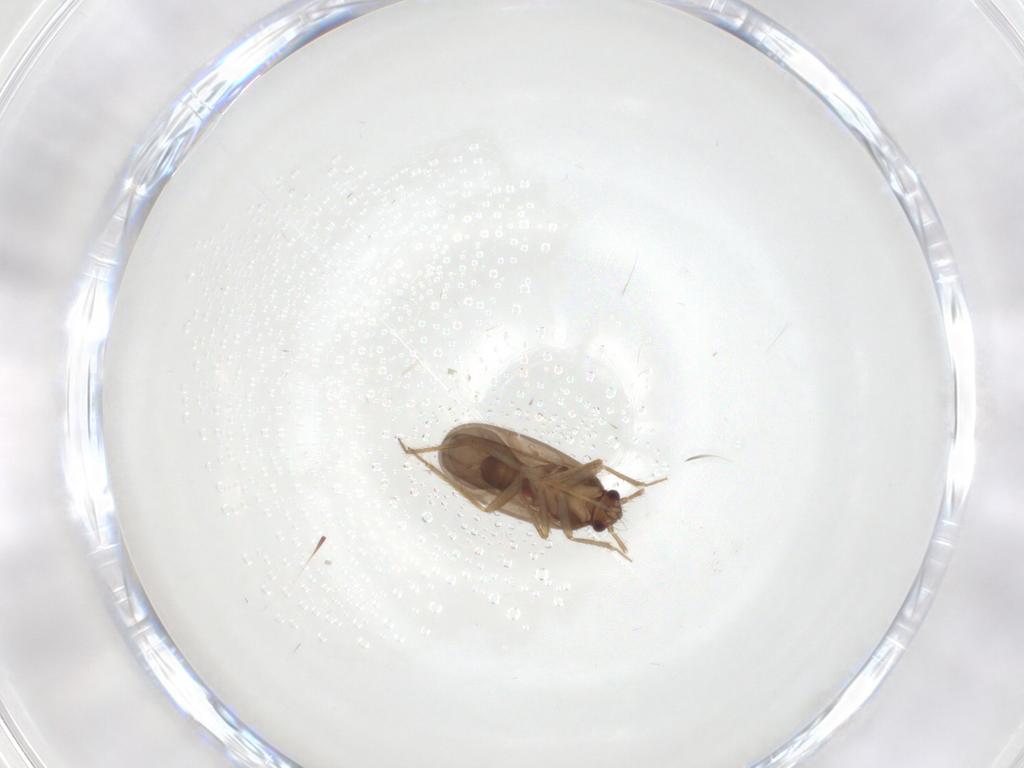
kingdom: Animalia
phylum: Arthropoda
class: Insecta
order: Hemiptera
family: Ceratocombidae
